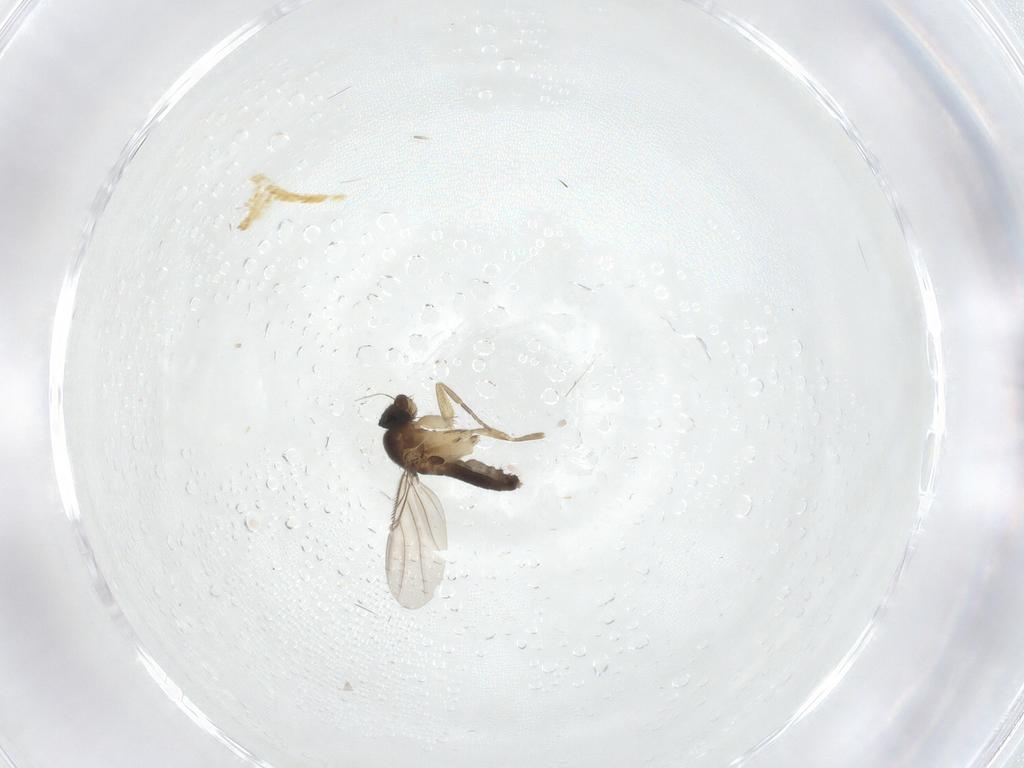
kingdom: Animalia
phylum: Arthropoda
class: Insecta
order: Diptera
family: Phoridae
